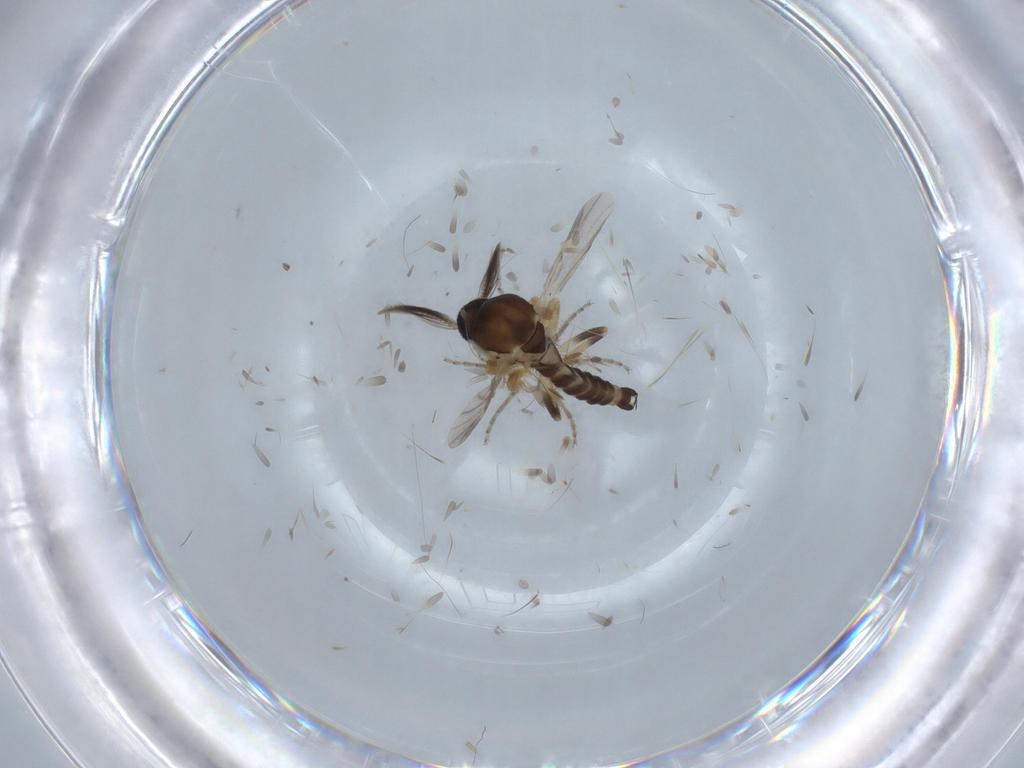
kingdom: Animalia
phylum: Arthropoda
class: Insecta
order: Diptera
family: Ceratopogonidae
